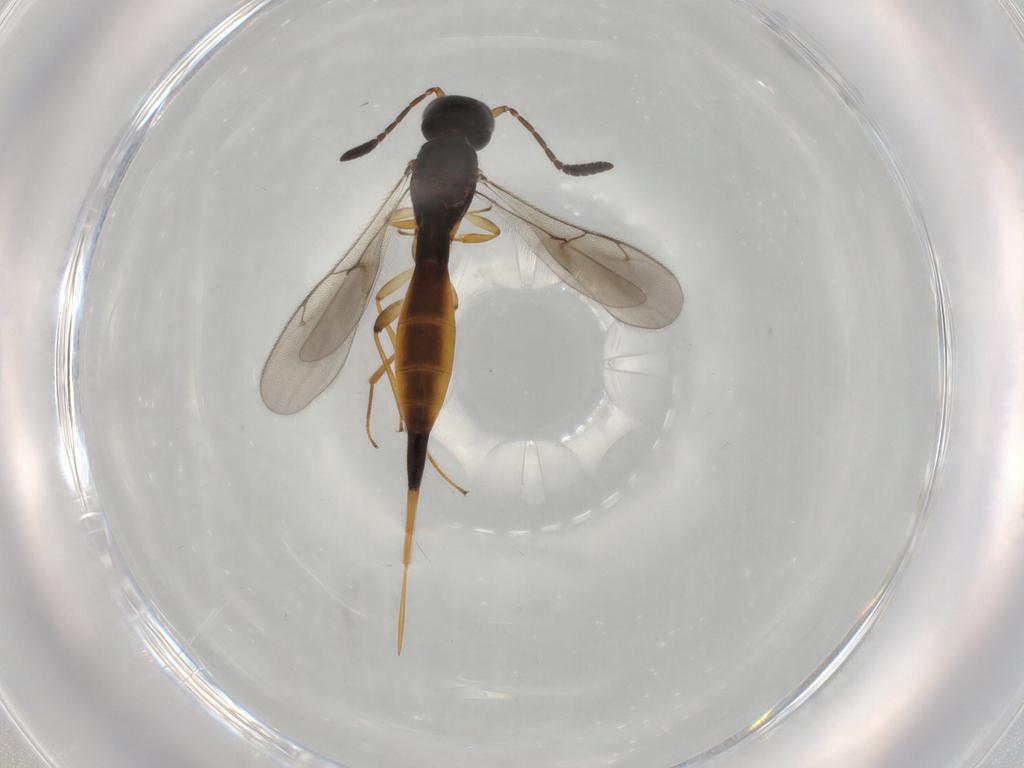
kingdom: Animalia
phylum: Arthropoda
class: Insecta
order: Hymenoptera
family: Scelionidae
